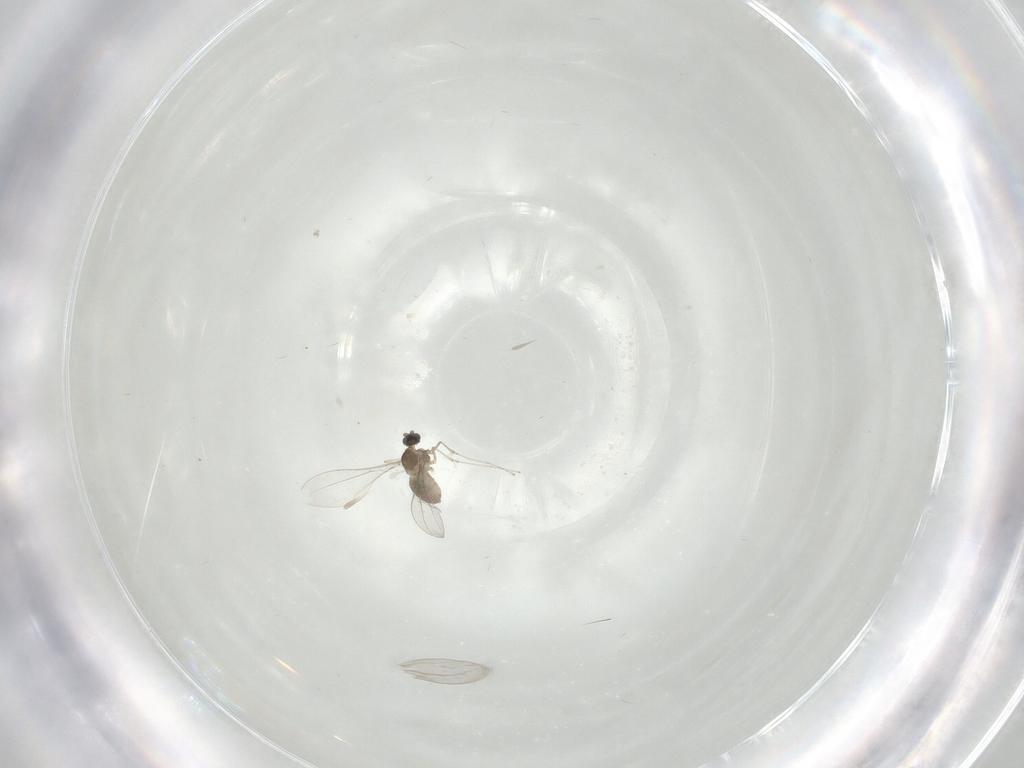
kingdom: Animalia
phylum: Arthropoda
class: Insecta
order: Diptera
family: Cecidomyiidae
